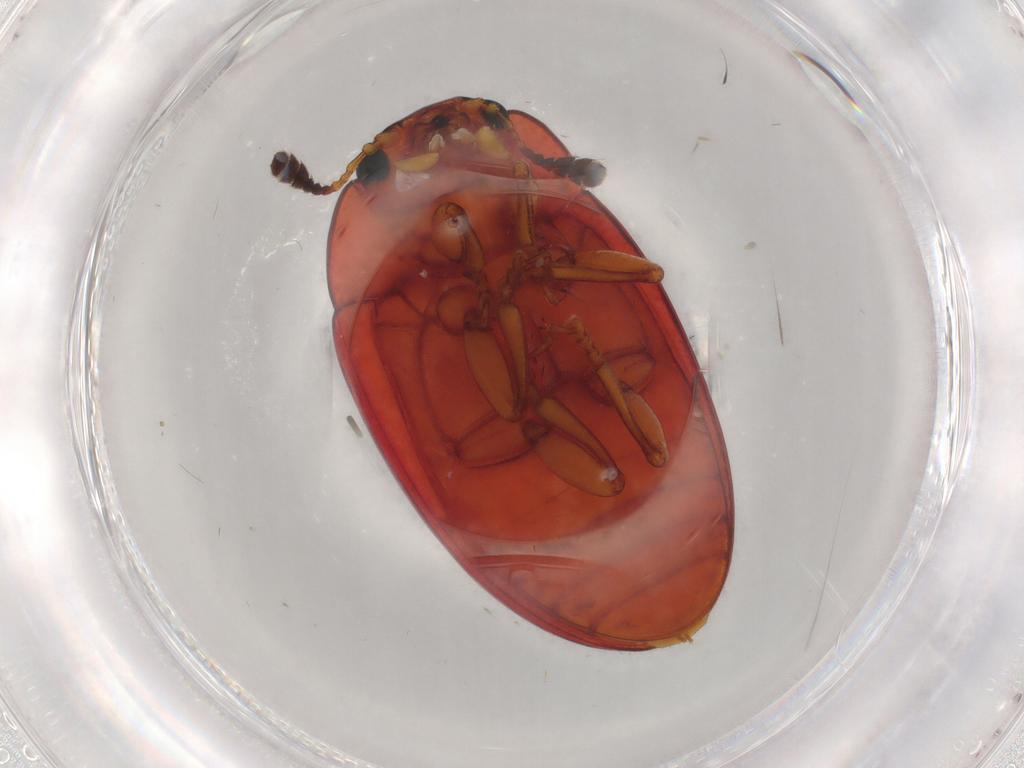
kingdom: Animalia
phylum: Arthropoda
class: Insecta
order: Coleoptera
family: Erotylidae
